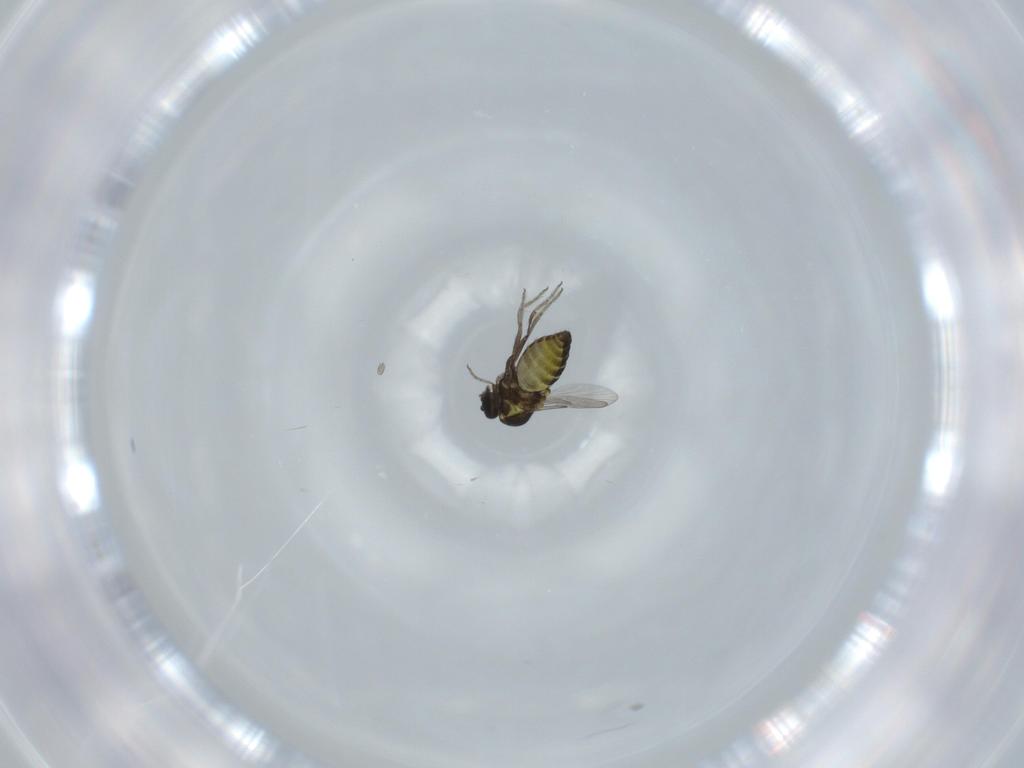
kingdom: Animalia
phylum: Arthropoda
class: Insecta
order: Diptera
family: Ceratopogonidae
